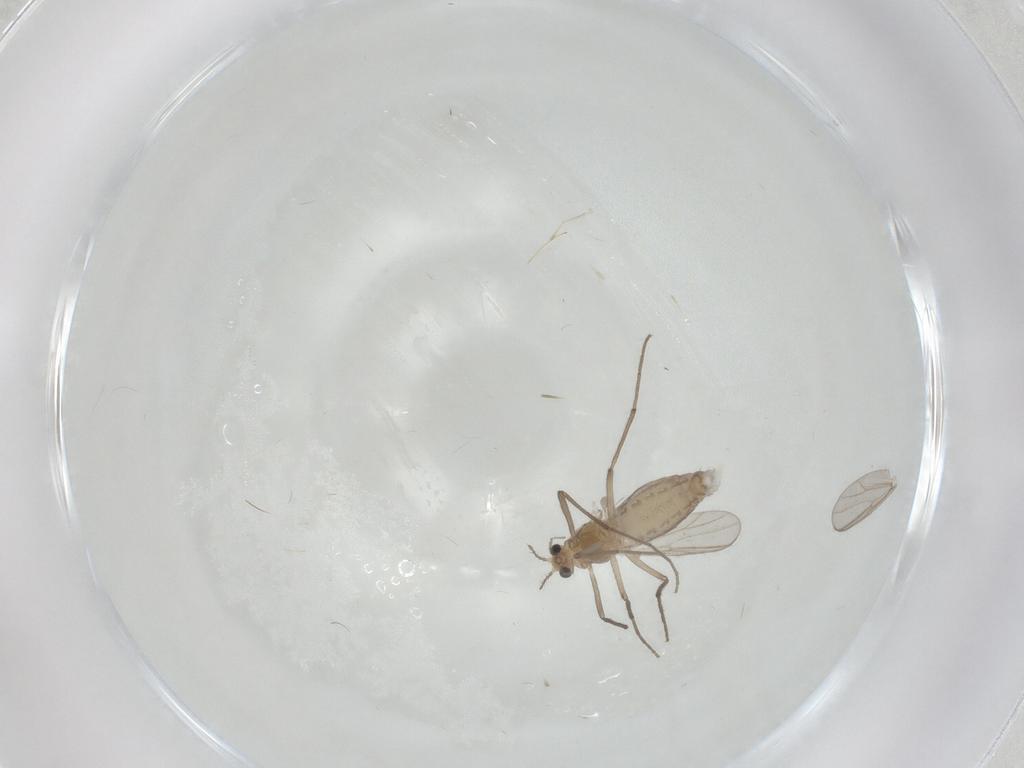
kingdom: Animalia
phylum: Arthropoda
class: Insecta
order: Diptera
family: Chironomidae
